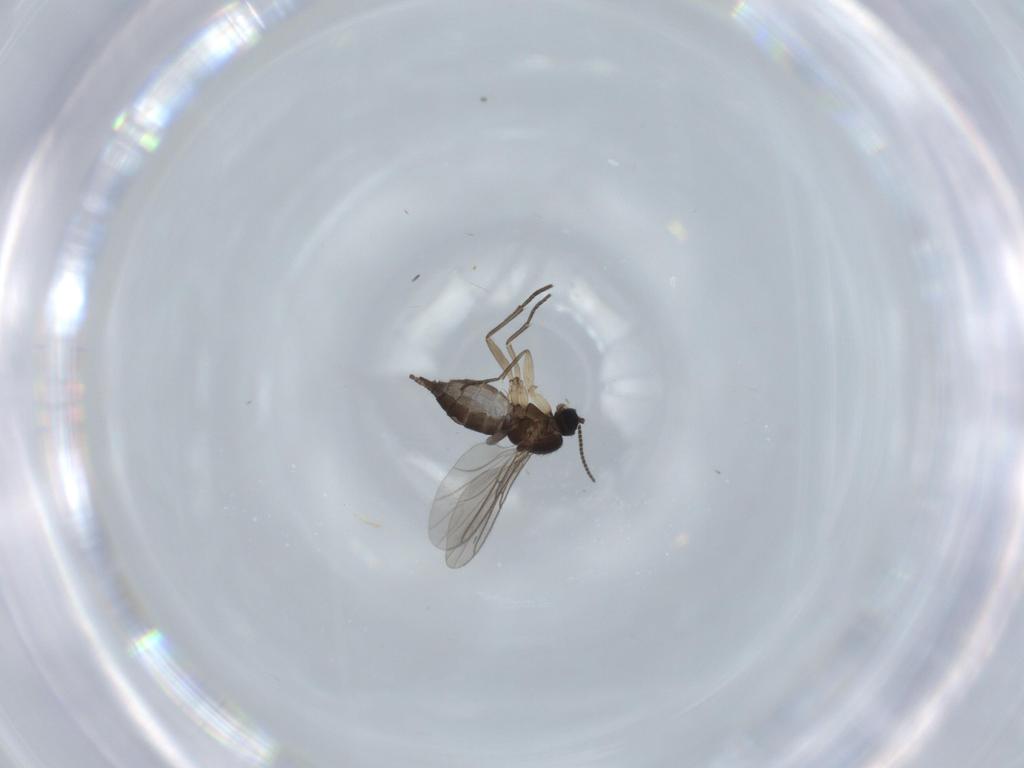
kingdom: Animalia
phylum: Arthropoda
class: Insecta
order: Diptera
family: Sciaridae
